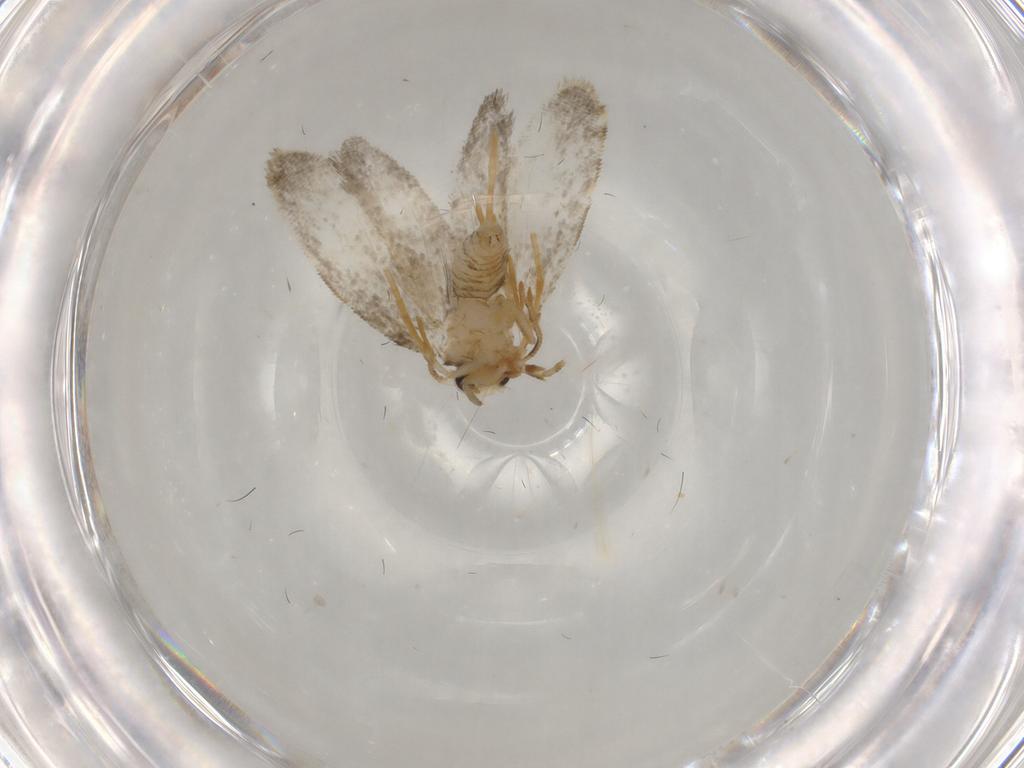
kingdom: Animalia
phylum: Arthropoda
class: Insecta
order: Lepidoptera
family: Psychidae
